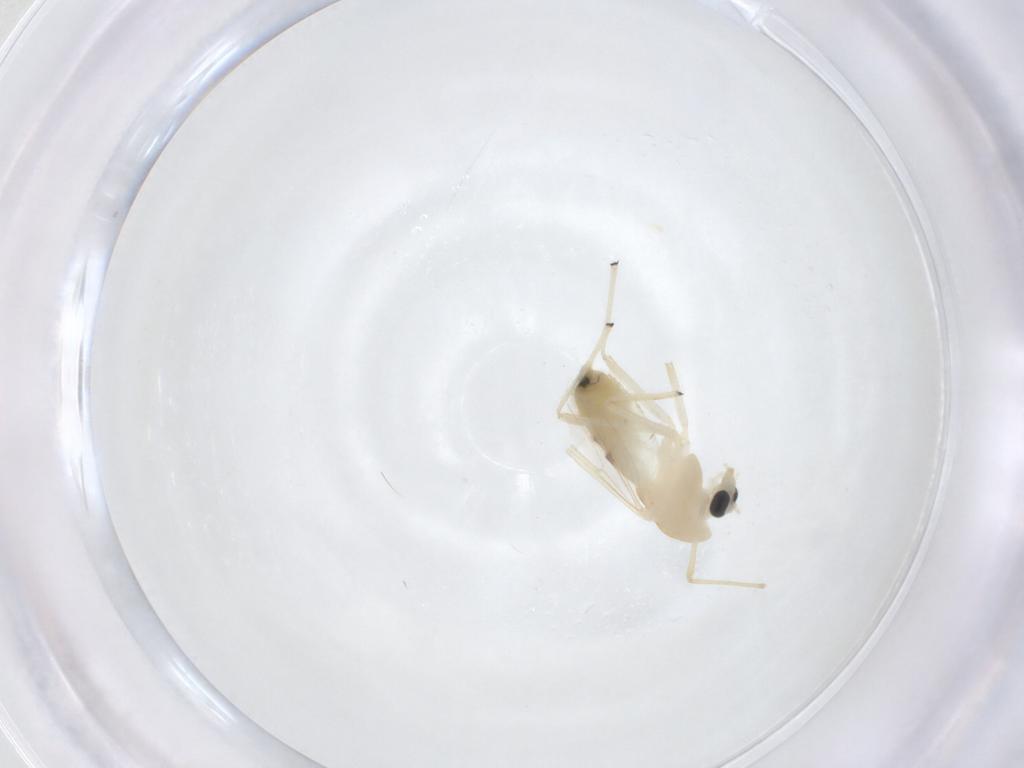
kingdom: Animalia
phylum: Arthropoda
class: Insecta
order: Diptera
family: Chironomidae
